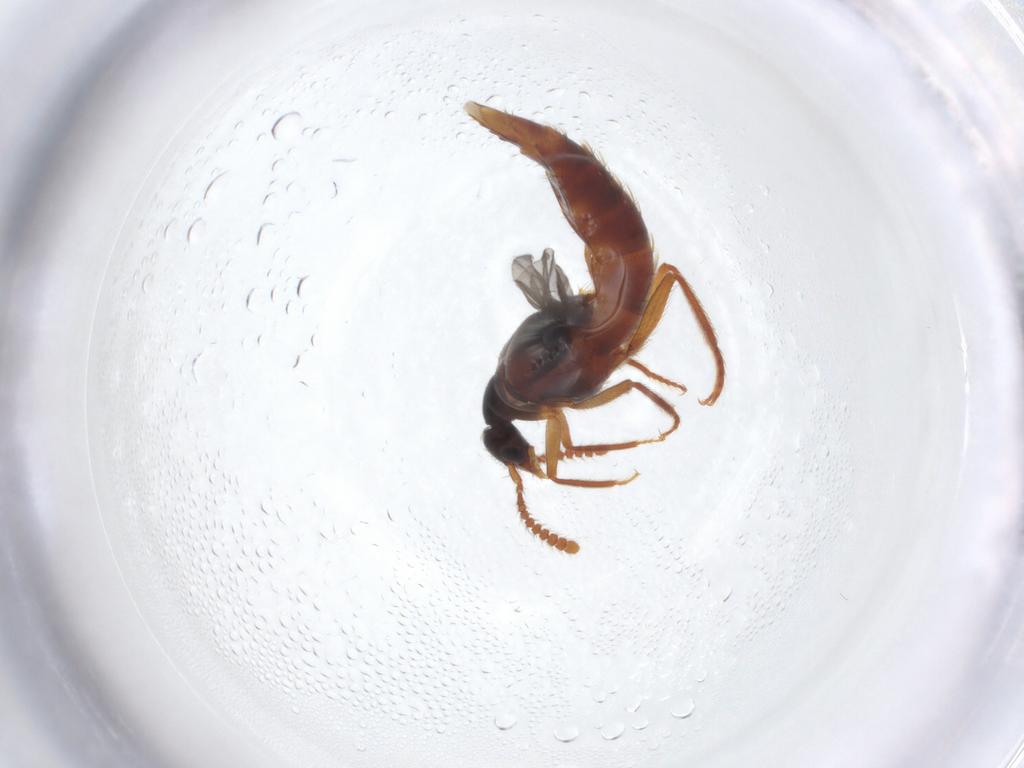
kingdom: Animalia
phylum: Arthropoda
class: Insecta
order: Coleoptera
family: Staphylinidae
